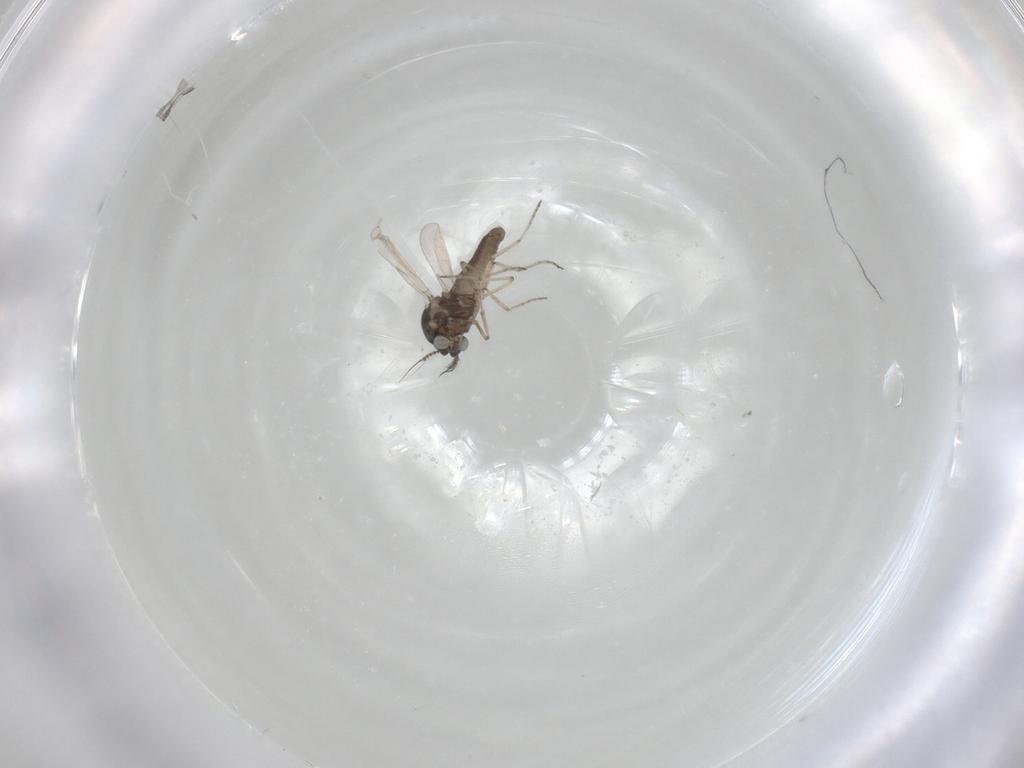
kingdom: Animalia
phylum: Arthropoda
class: Insecta
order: Diptera
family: Ceratopogonidae
